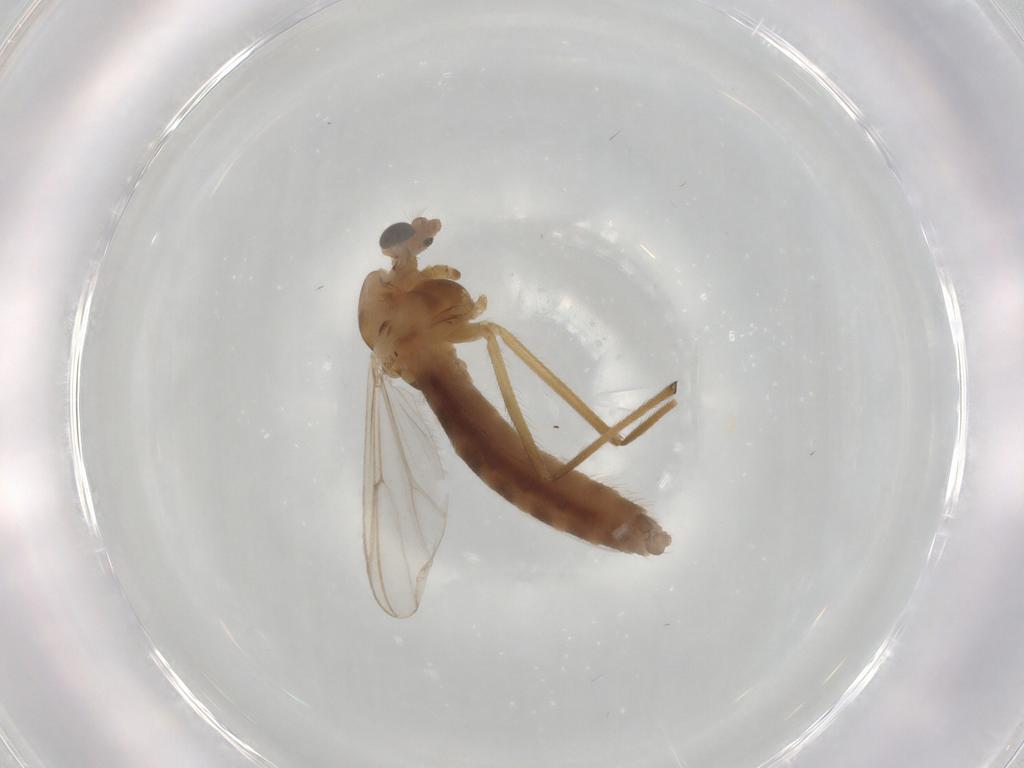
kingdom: Animalia
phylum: Arthropoda
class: Insecta
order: Diptera
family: Chironomidae
